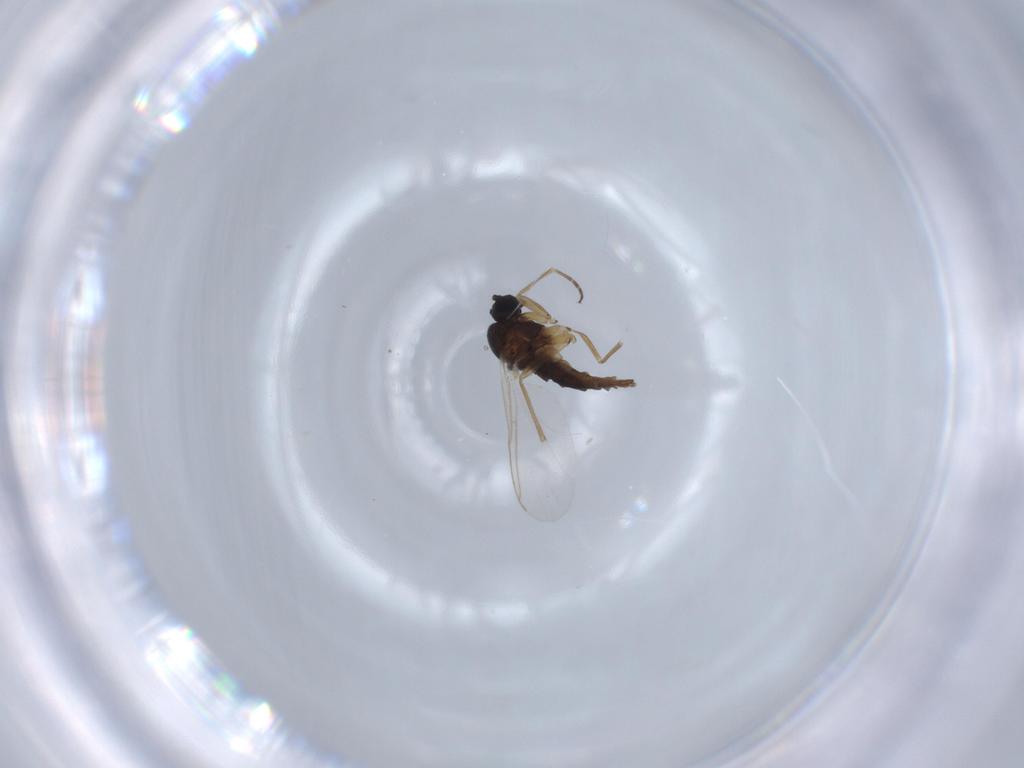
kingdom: Animalia
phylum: Arthropoda
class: Insecta
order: Diptera
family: Sciaridae
